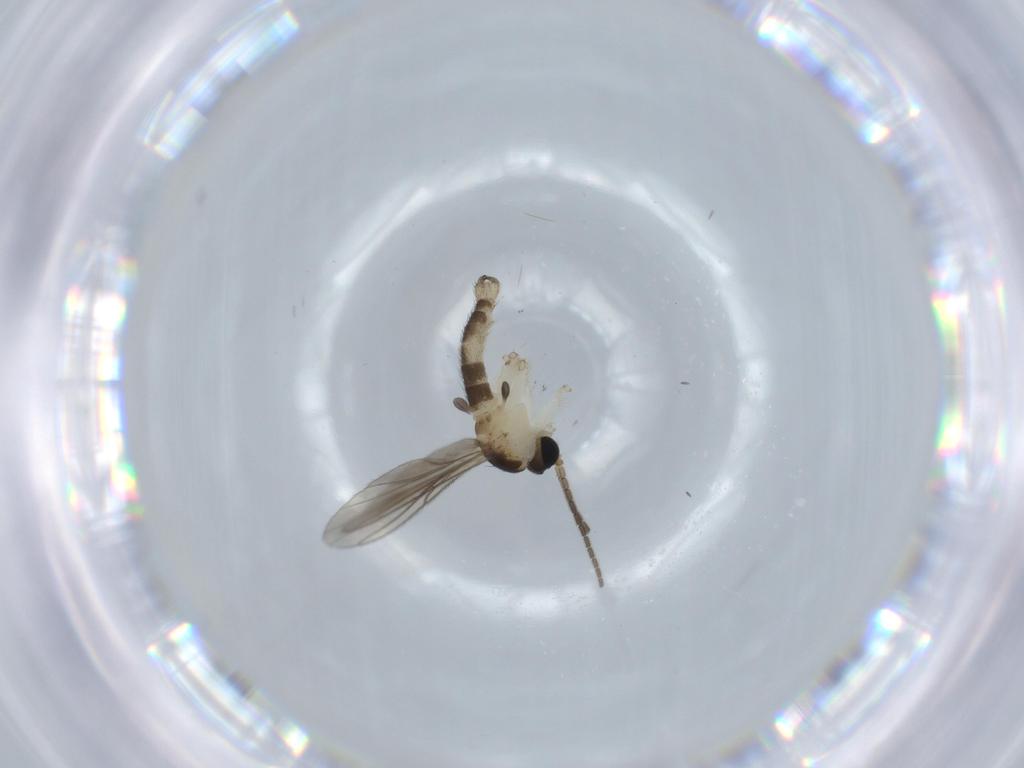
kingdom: Animalia
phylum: Arthropoda
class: Insecta
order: Diptera
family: Sciaridae
